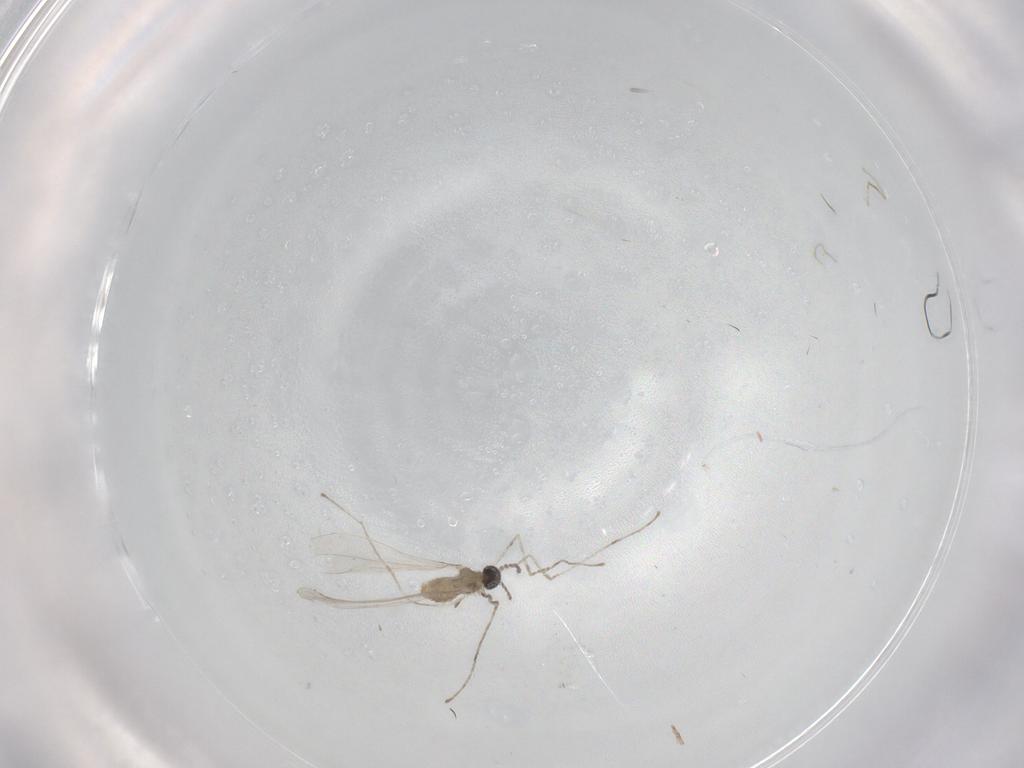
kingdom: Animalia
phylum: Arthropoda
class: Insecta
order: Diptera
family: Cecidomyiidae
